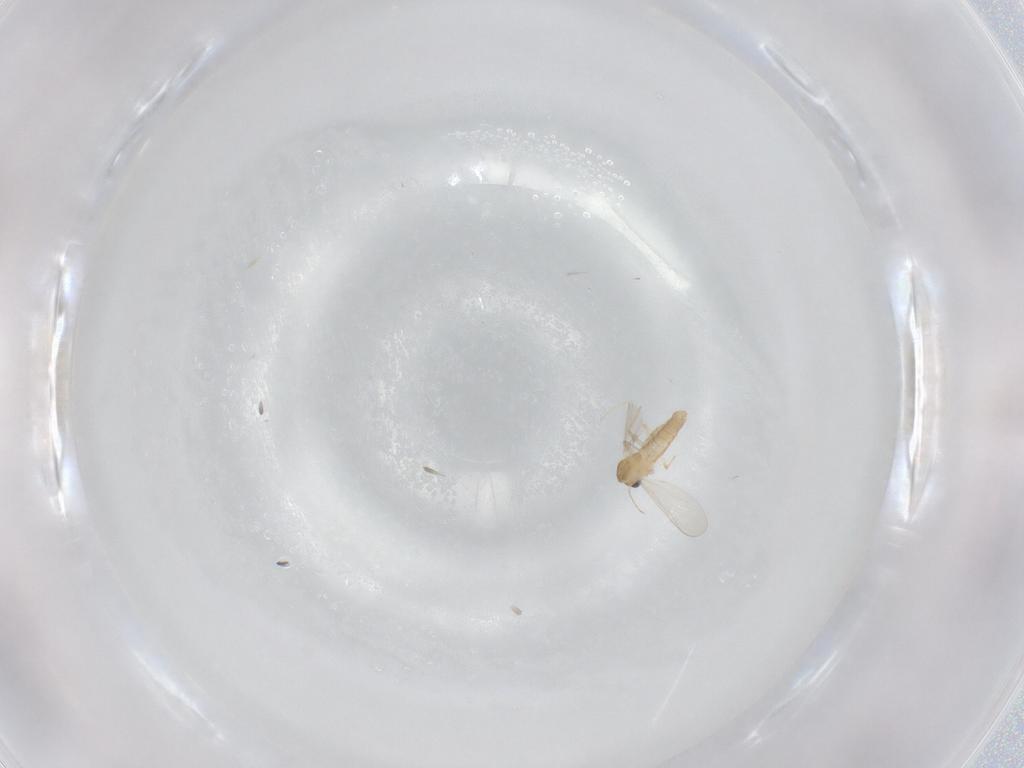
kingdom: Animalia
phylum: Arthropoda
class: Insecta
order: Diptera
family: Chironomidae
